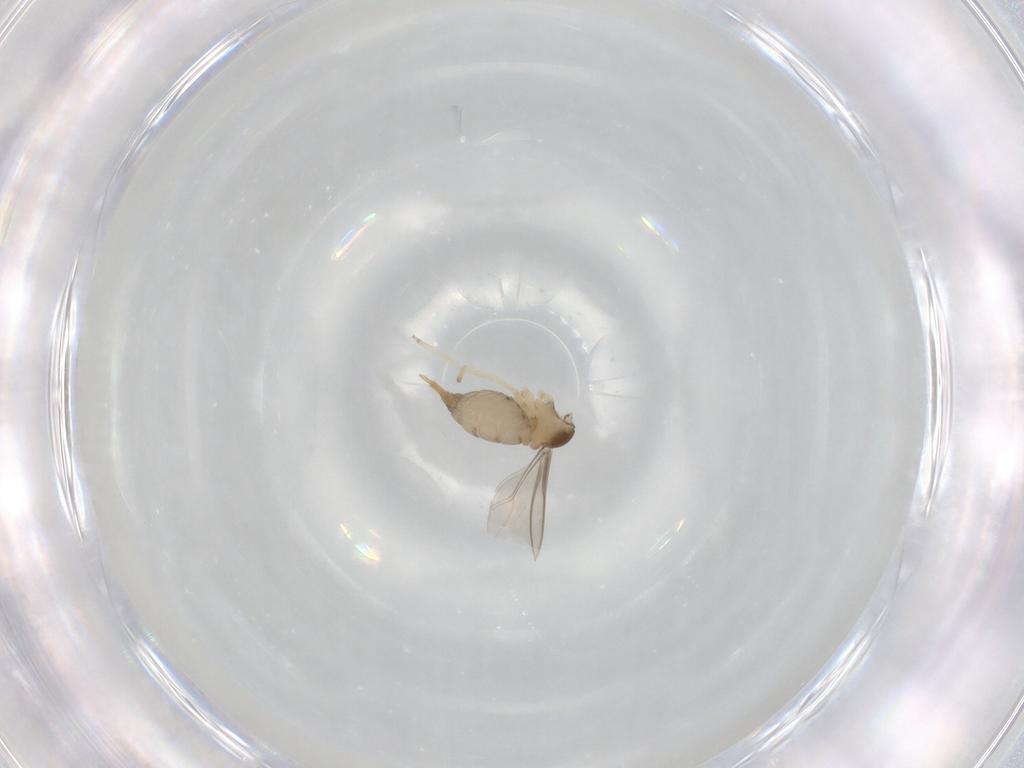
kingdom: Animalia
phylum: Arthropoda
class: Insecta
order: Diptera
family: Cecidomyiidae
